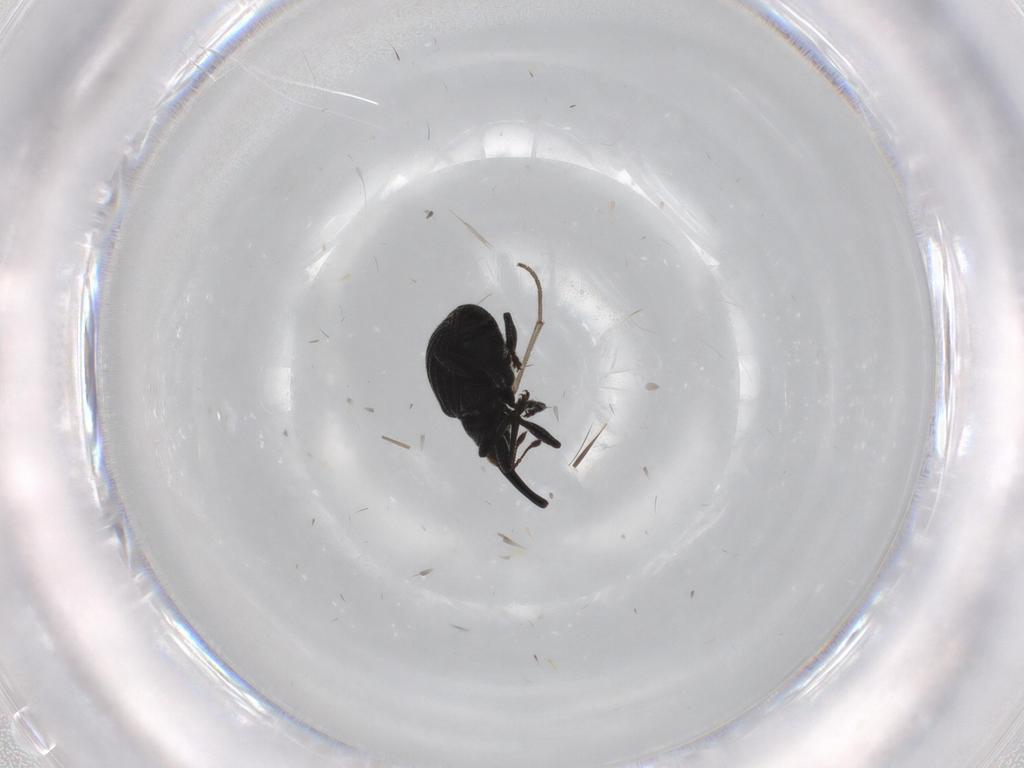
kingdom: Animalia
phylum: Arthropoda
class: Insecta
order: Coleoptera
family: Brentidae
